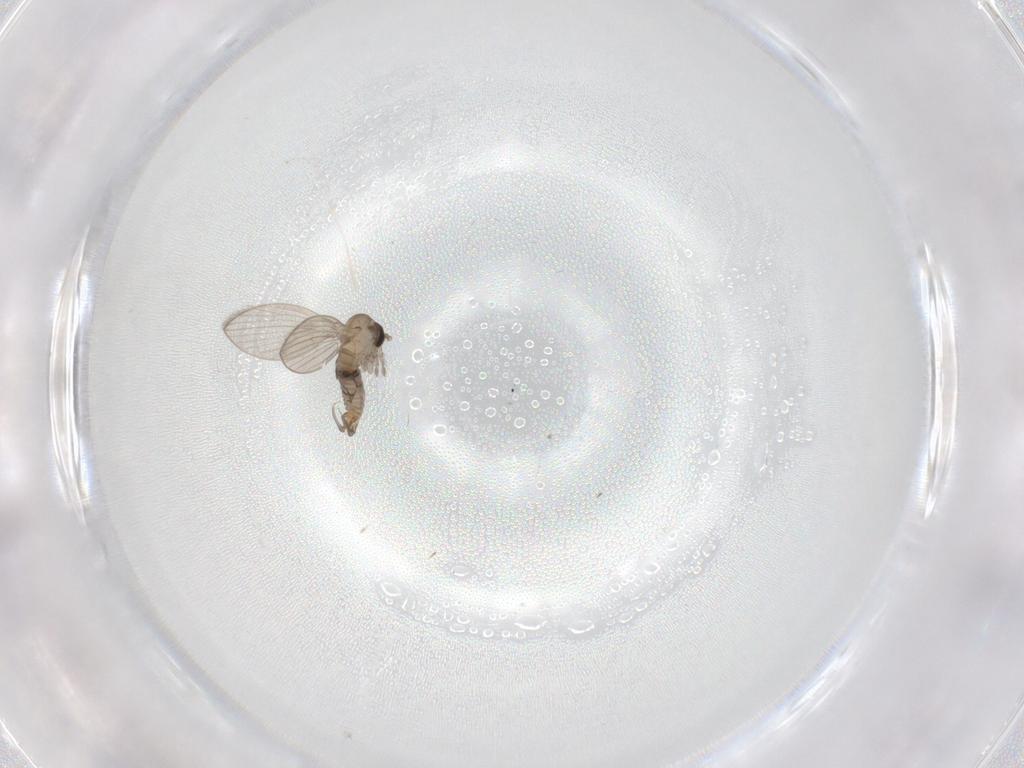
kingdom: Animalia
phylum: Arthropoda
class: Insecta
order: Diptera
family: Psychodidae
